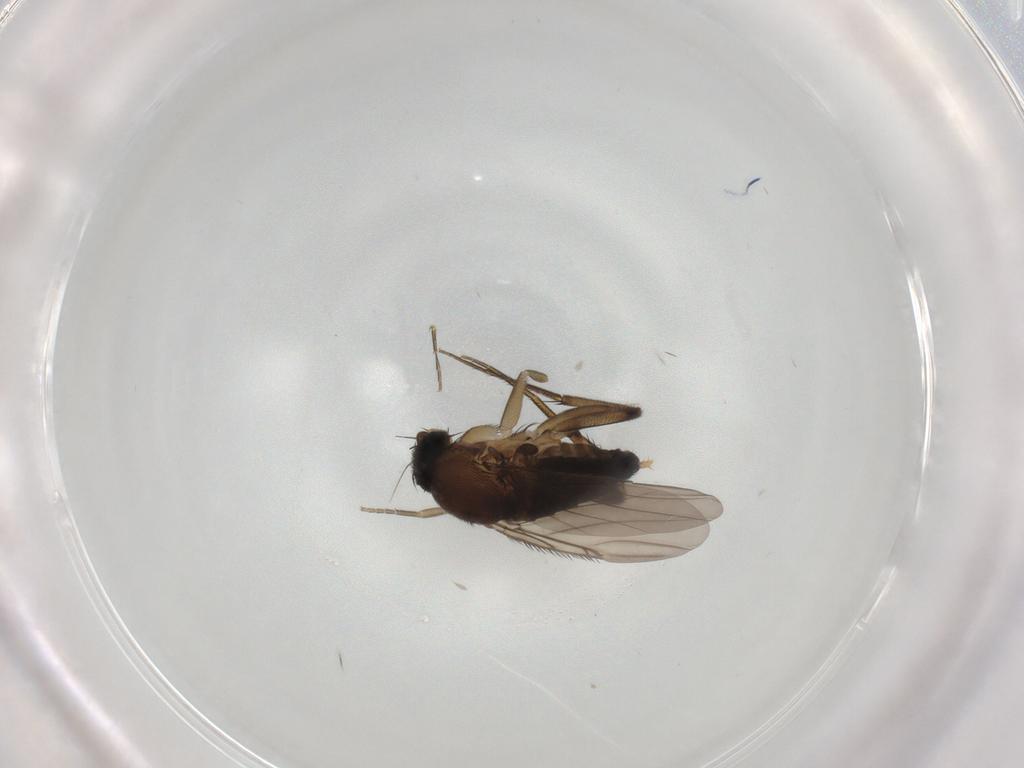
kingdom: Animalia
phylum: Arthropoda
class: Insecta
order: Diptera
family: Phoridae
